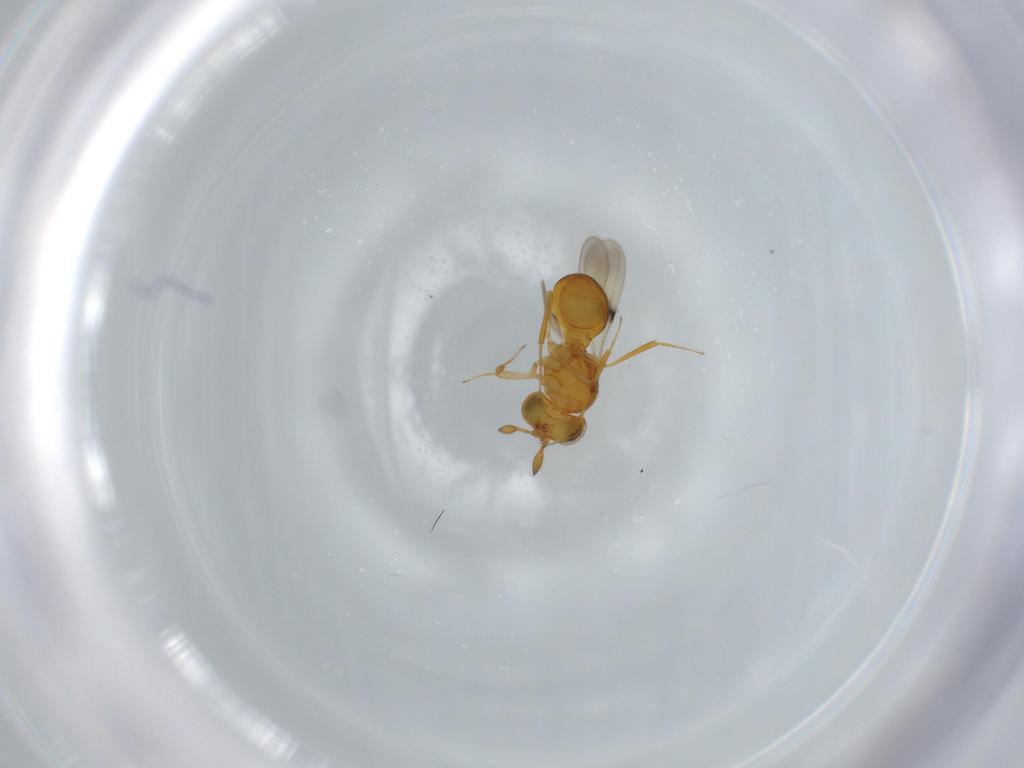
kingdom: Animalia
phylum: Arthropoda
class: Insecta
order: Hymenoptera
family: Scelionidae
